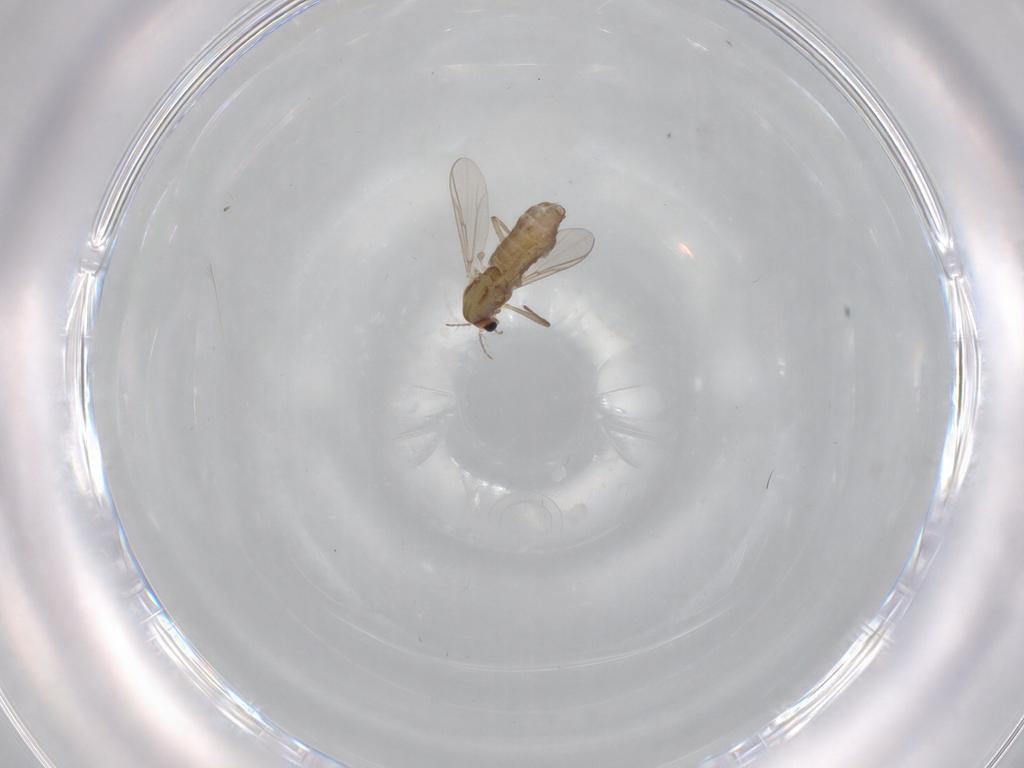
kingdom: Animalia
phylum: Arthropoda
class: Insecta
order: Diptera
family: Chironomidae
